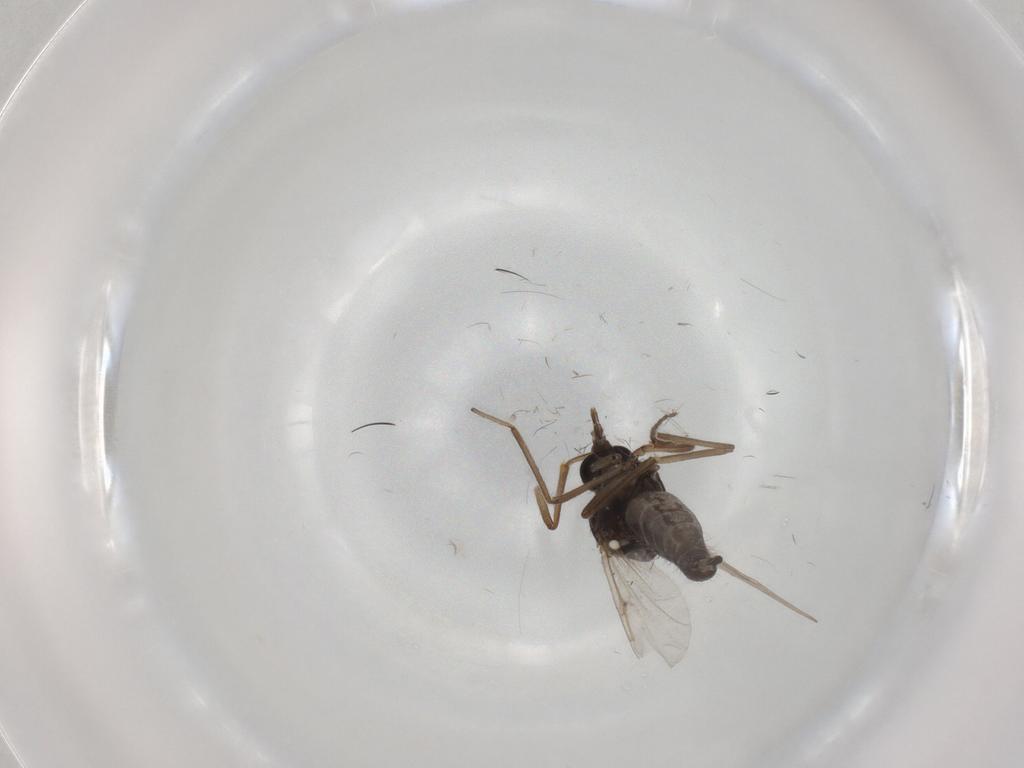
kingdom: Animalia
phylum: Arthropoda
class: Insecta
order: Diptera
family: Ceratopogonidae
